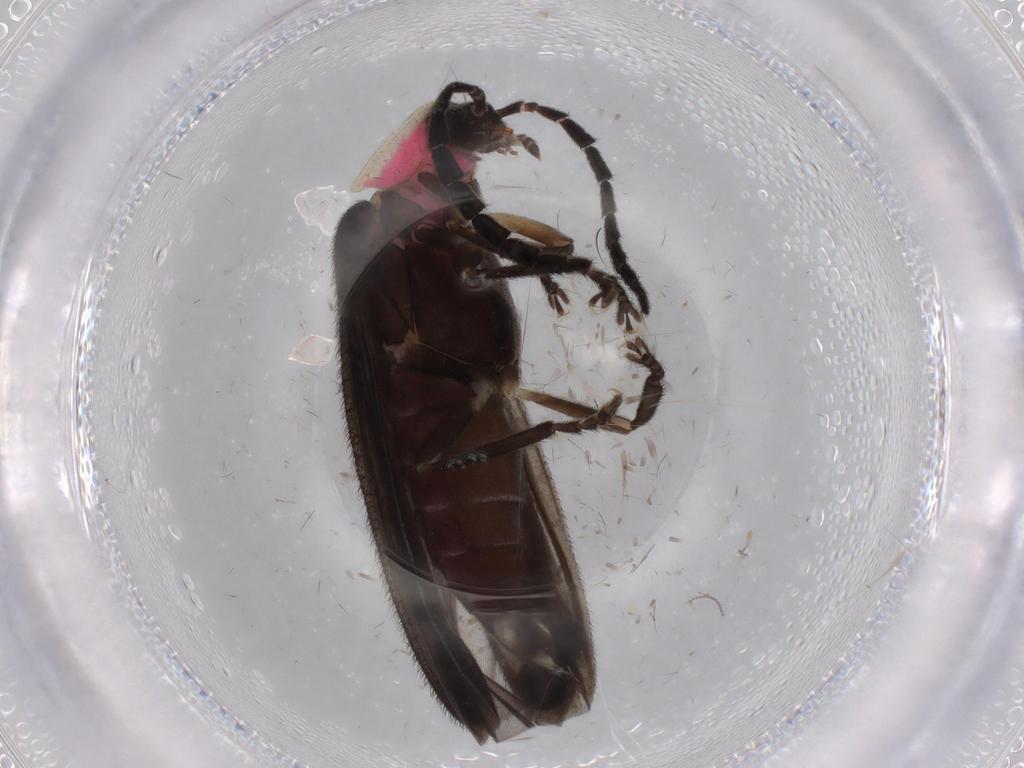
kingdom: Animalia
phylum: Arthropoda
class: Insecta
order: Coleoptera
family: Lampyridae
